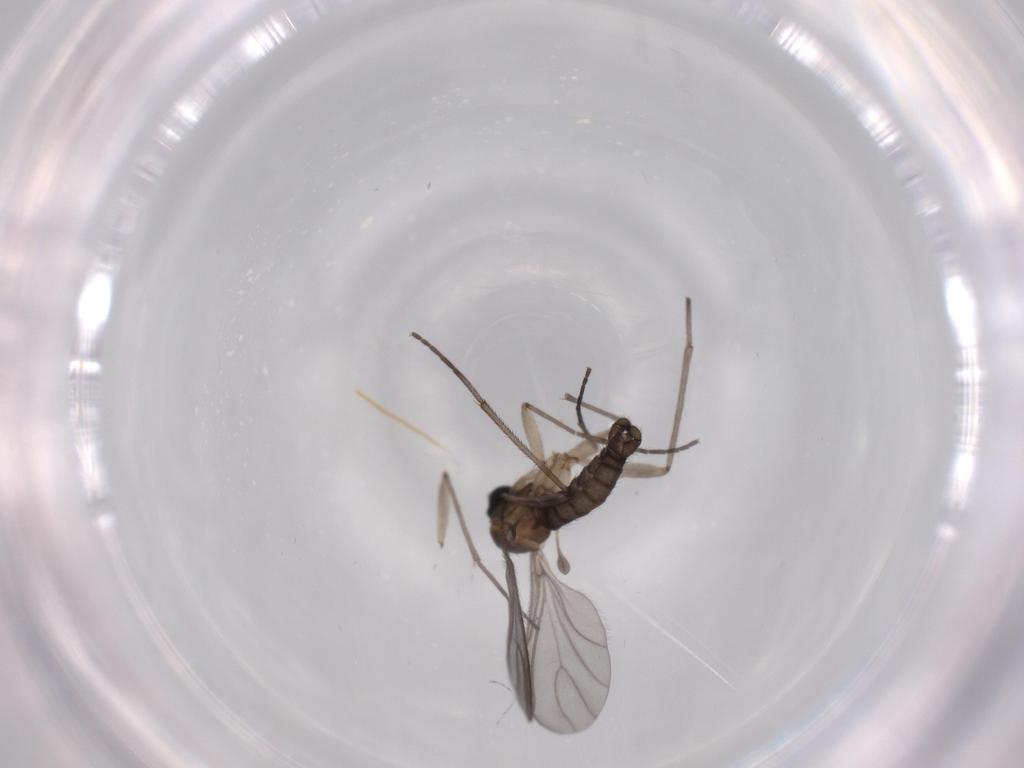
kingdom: Animalia
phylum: Arthropoda
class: Insecta
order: Diptera
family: Sciaridae
